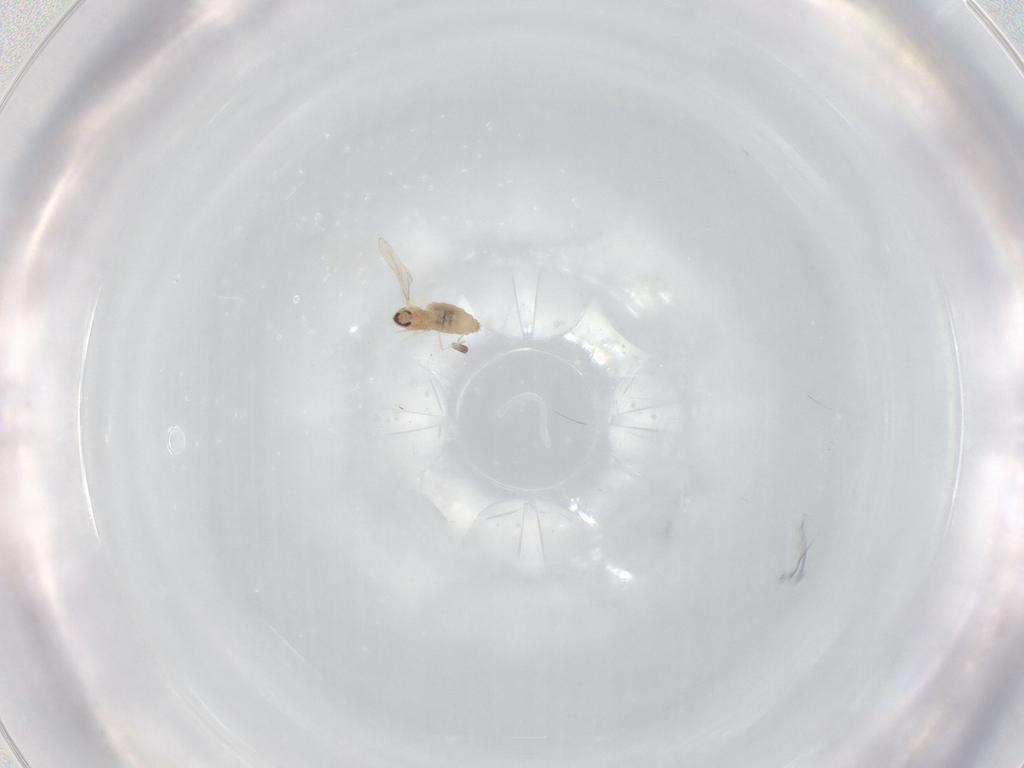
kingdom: Animalia
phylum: Arthropoda
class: Insecta
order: Diptera
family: Cecidomyiidae
